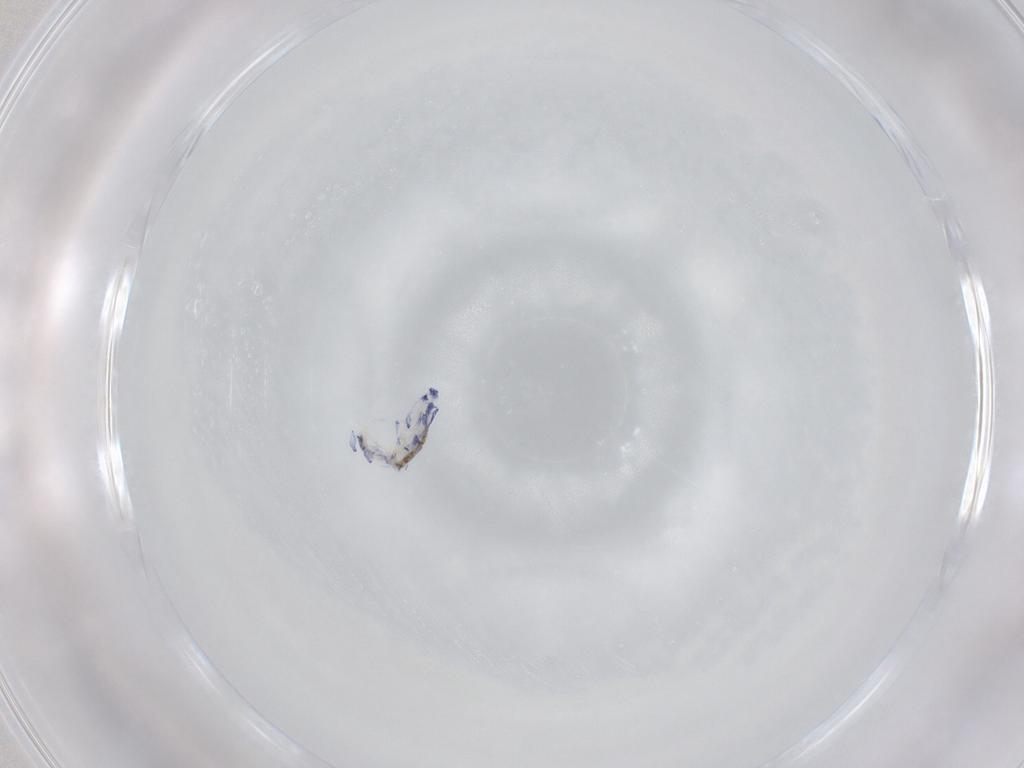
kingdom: Animalia
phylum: Arthropoda
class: Collembola
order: Entomobryomorpha
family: Entomobryidae
